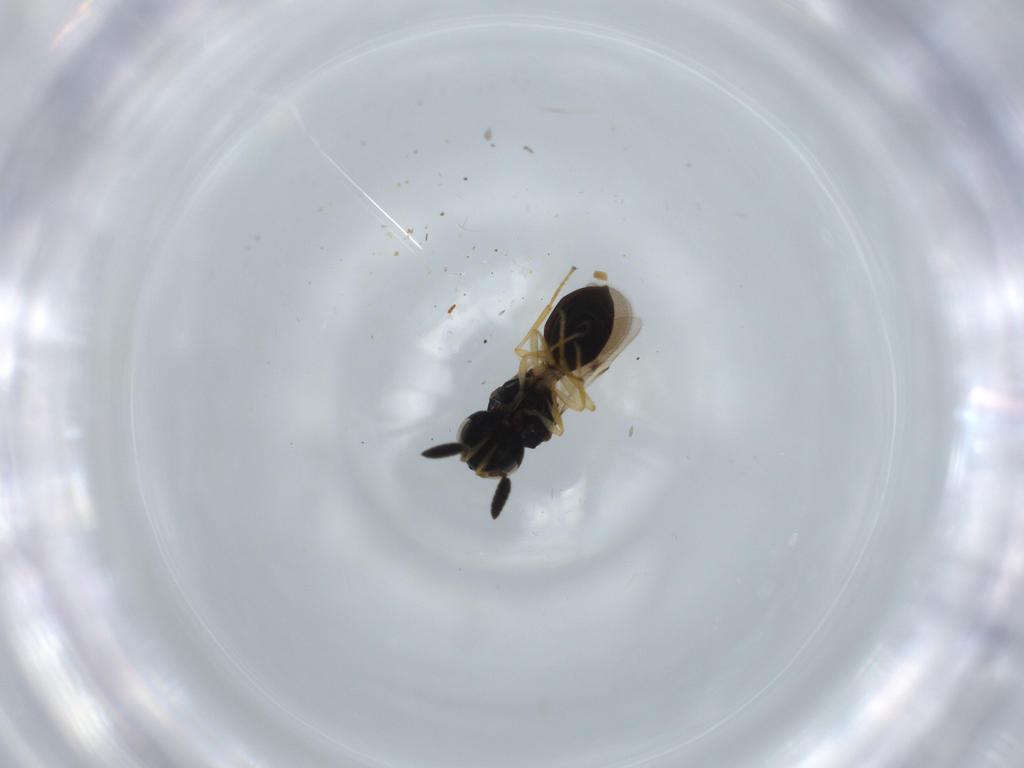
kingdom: Animalia
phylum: Arthropoda
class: Insecta
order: Hymenoptera
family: Scelionidae
